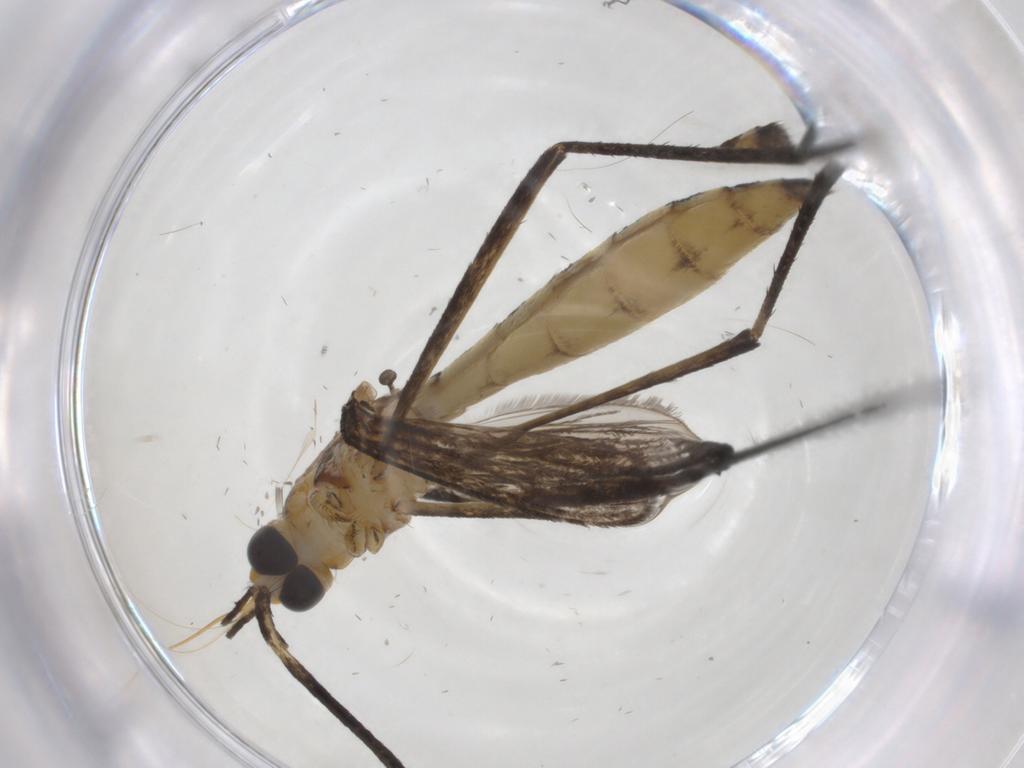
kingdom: Animalia
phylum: Arthropoda
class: Insecta
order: Diptera
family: Culicidae
